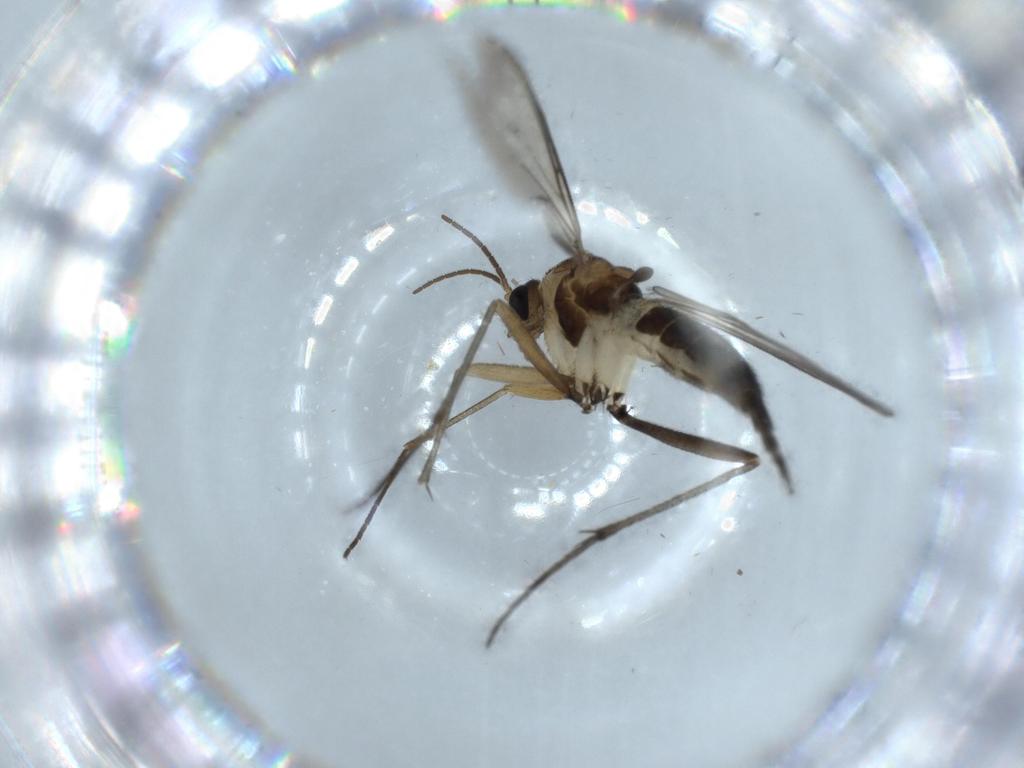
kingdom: Animalia
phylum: Arthropoda
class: Insecta
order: Diptera
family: Sciaridae
